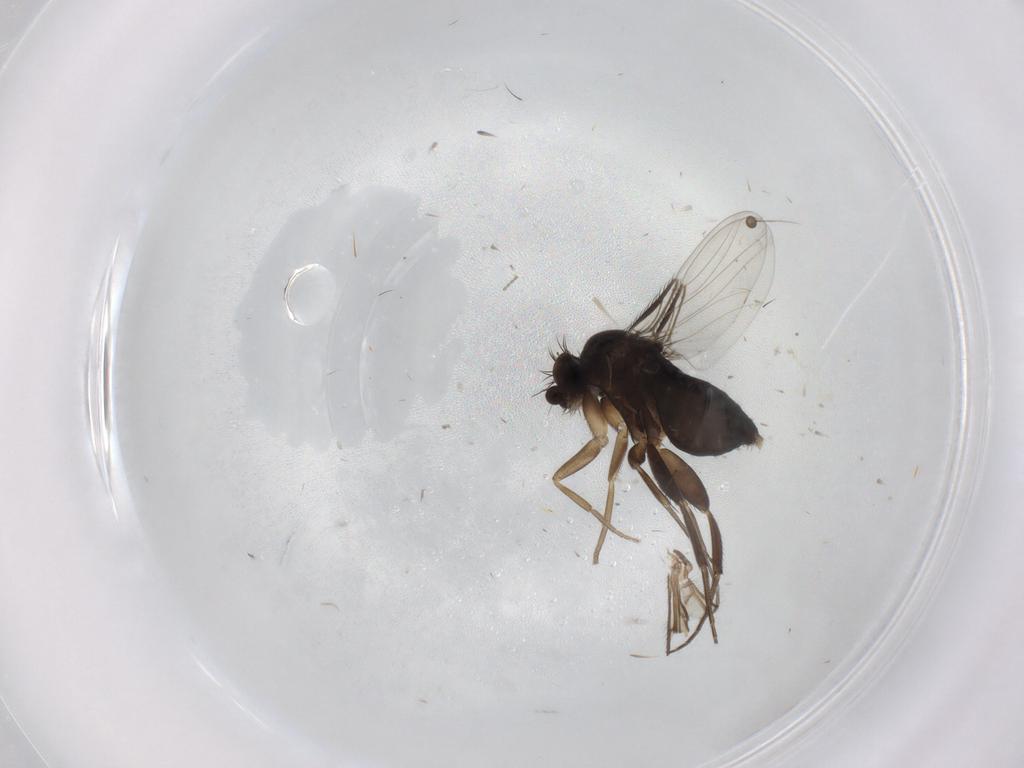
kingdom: Animalia
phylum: Arthropoda
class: Insecta
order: Diptera
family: Phoridae
